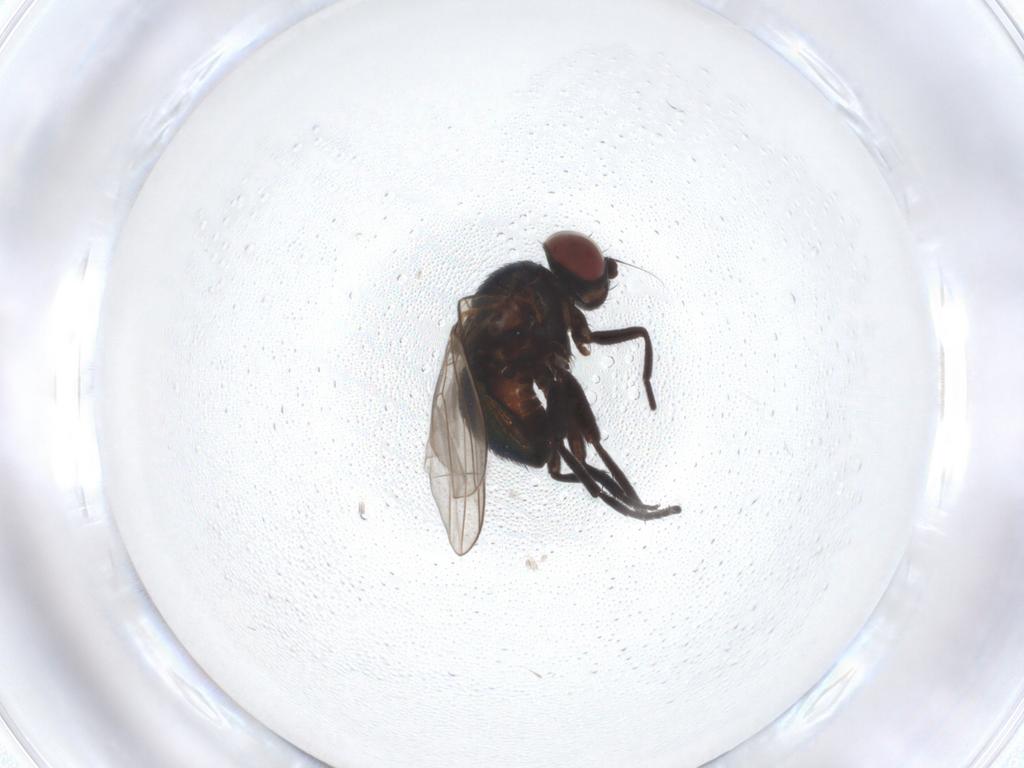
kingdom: Animalia
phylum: Arthropoda
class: Insecta
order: Diptera
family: Agromyzidae
